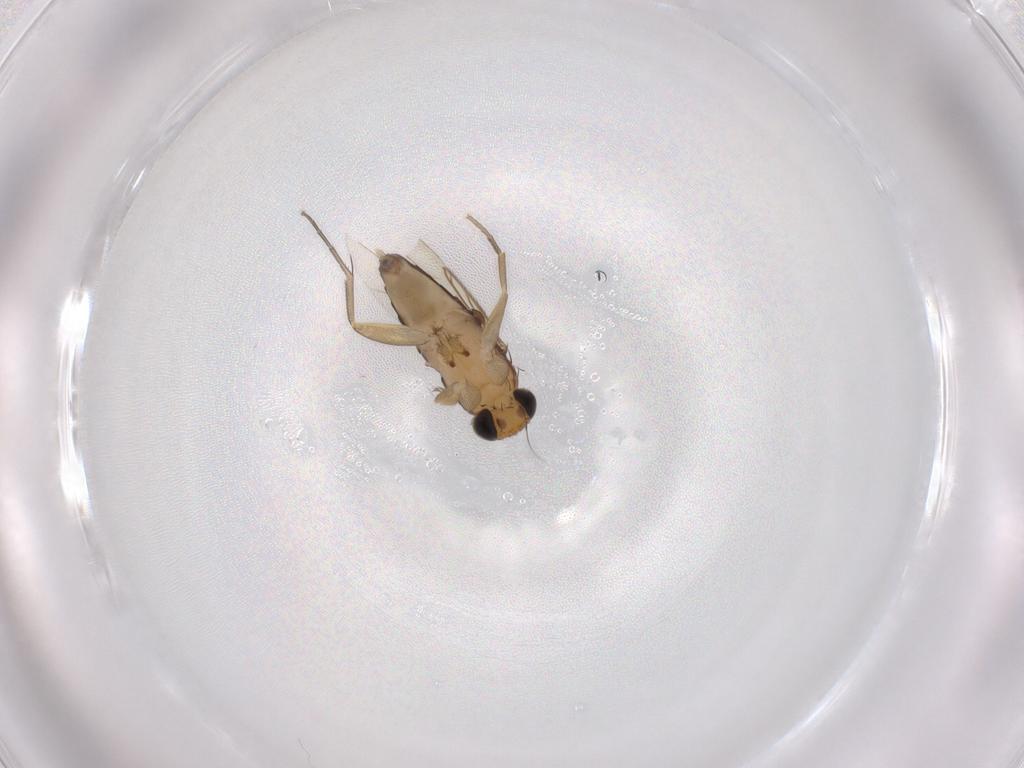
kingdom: Animalia
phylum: Arthropoda
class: Insecta
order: Diptera
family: Phoridae
